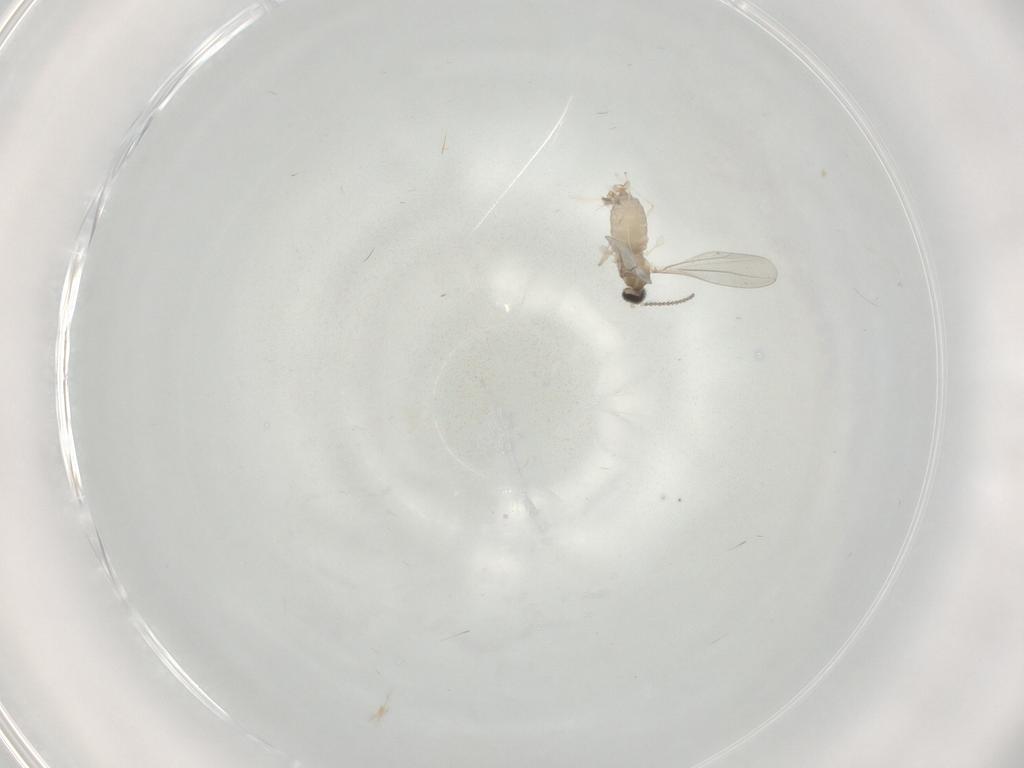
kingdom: Animalia
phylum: Arthropoda
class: Insecta
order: Diptera
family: Cecidomyiidae
